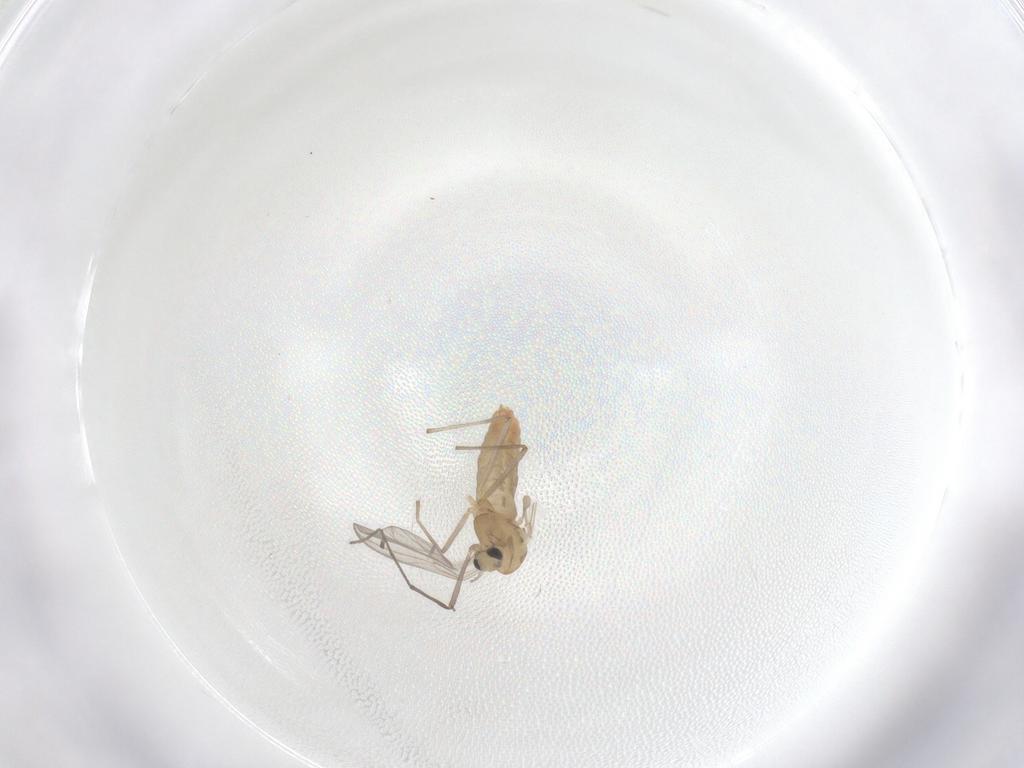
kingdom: Animalia
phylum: Arthropoda
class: Insecta
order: Diptera
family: Chironomidae
